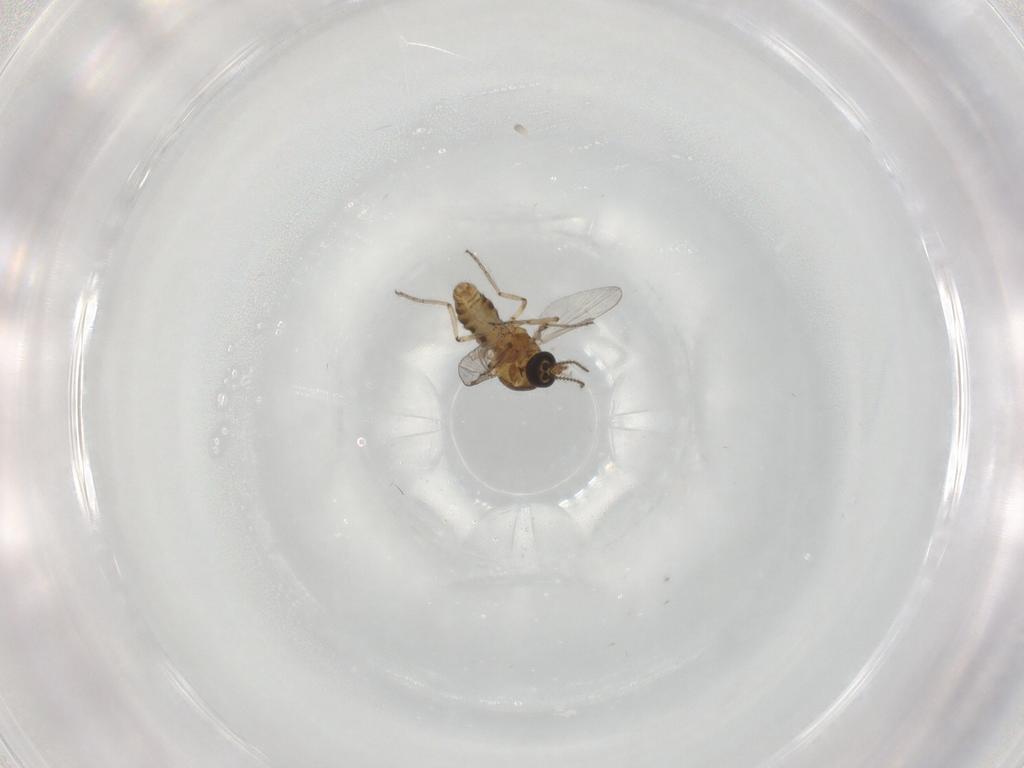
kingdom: Animalia
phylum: Arthropoda
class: Insecta
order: Diptera
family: Ceratopogonidae
